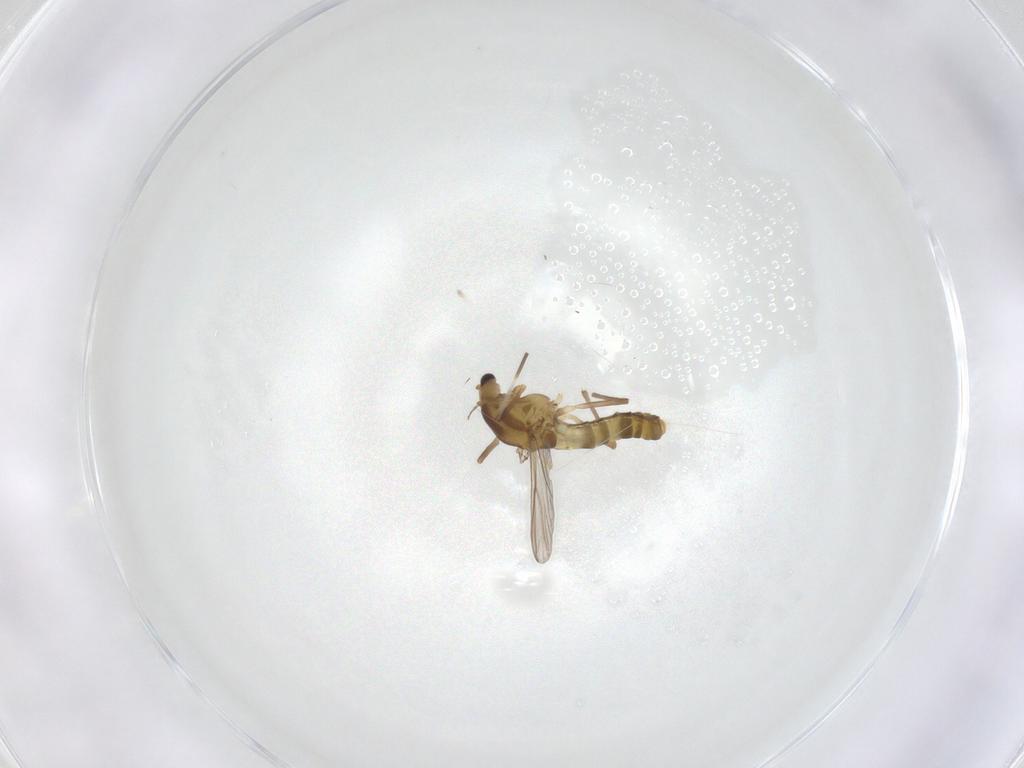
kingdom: Animalia
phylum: Arthropoda
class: Insecta
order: Diptera
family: Chironomidae
